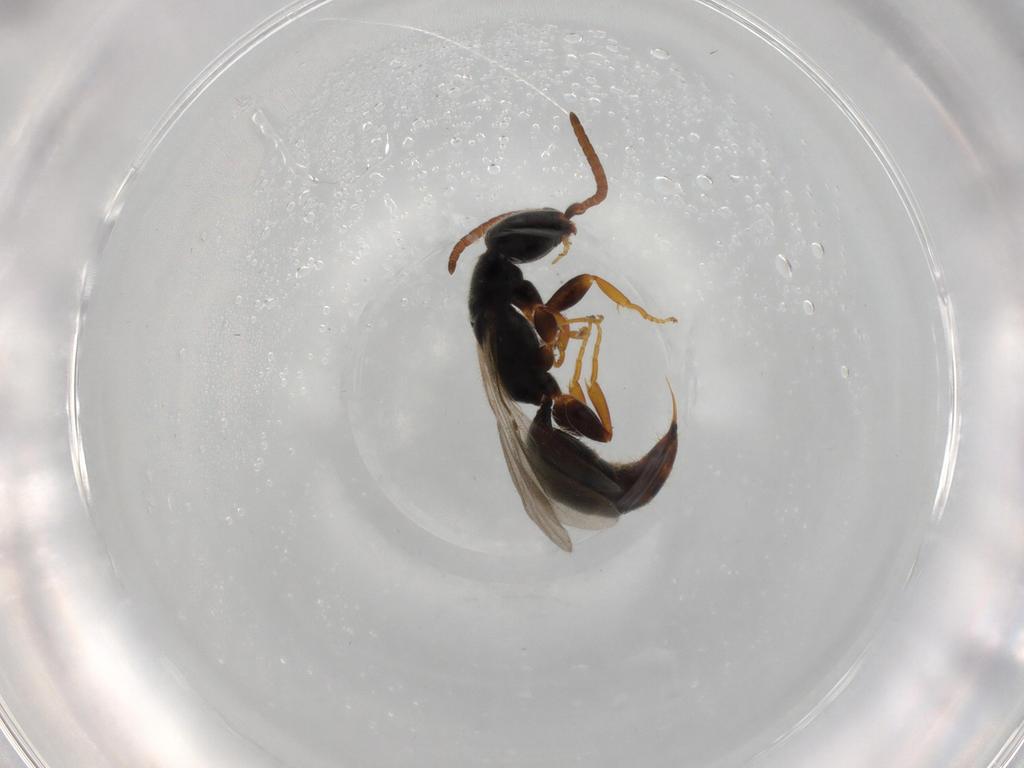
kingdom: Animalia
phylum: Arthropoda
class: Insecta
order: Hymenoptera
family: Bethylidae
